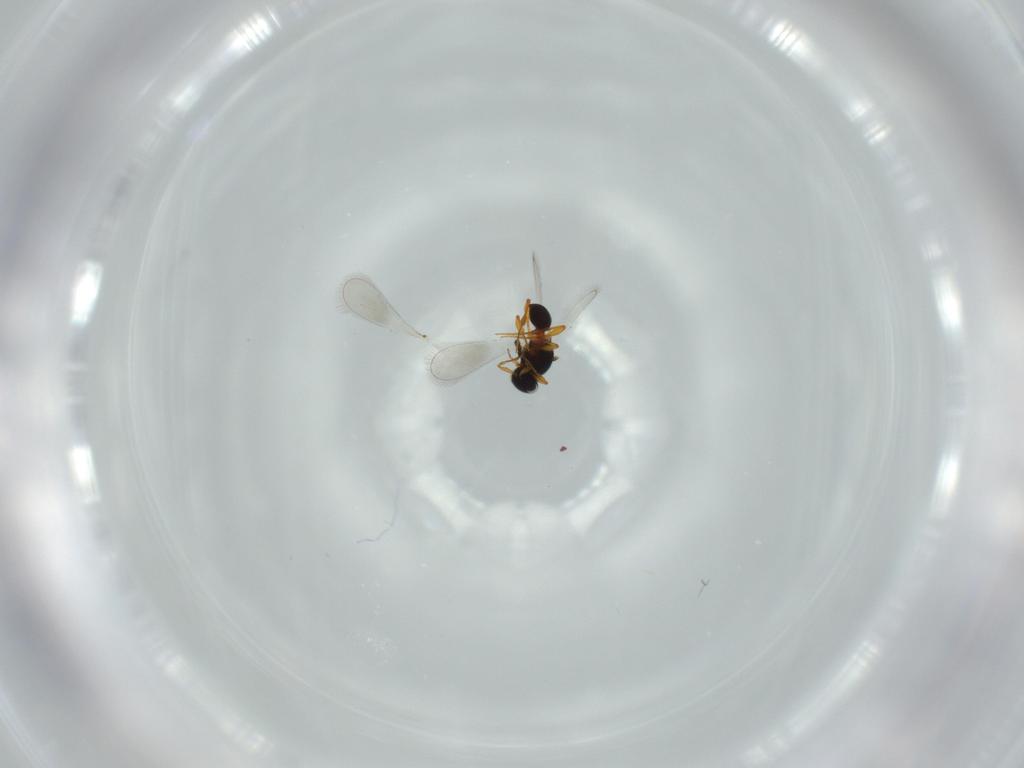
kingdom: Animalia
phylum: Arthropoda
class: Insecta
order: Hymenoptera
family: Platygastridae
